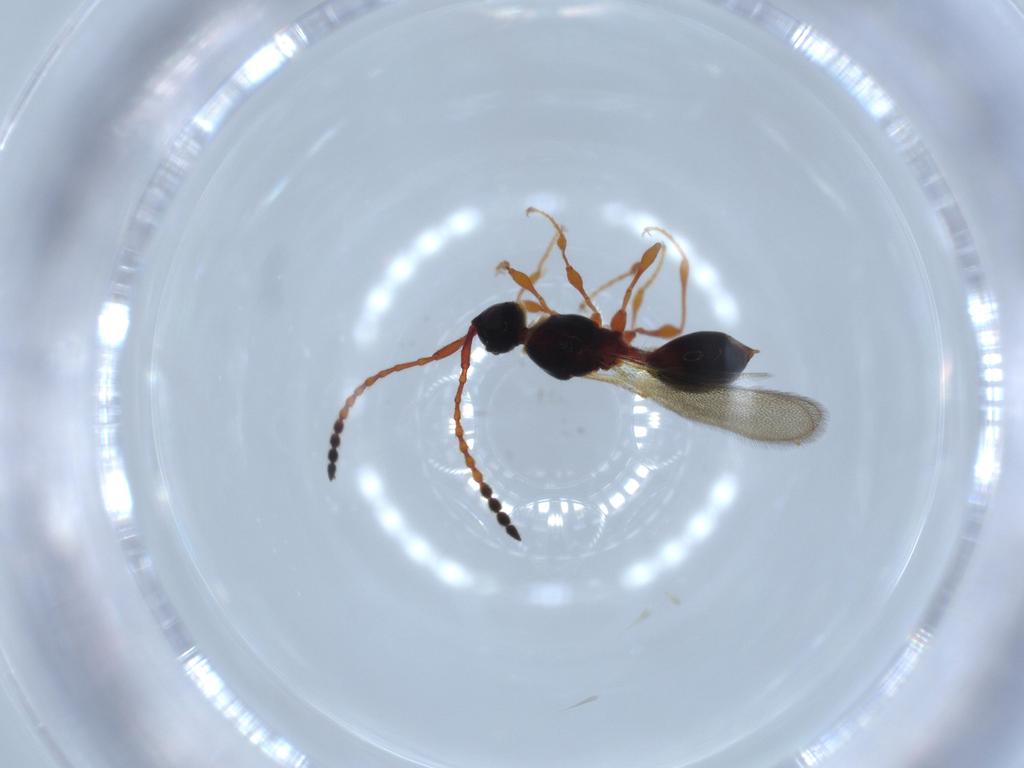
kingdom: Animalia
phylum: Arthropoda
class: Insecta
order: Hymenoptera
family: Diapriidae
